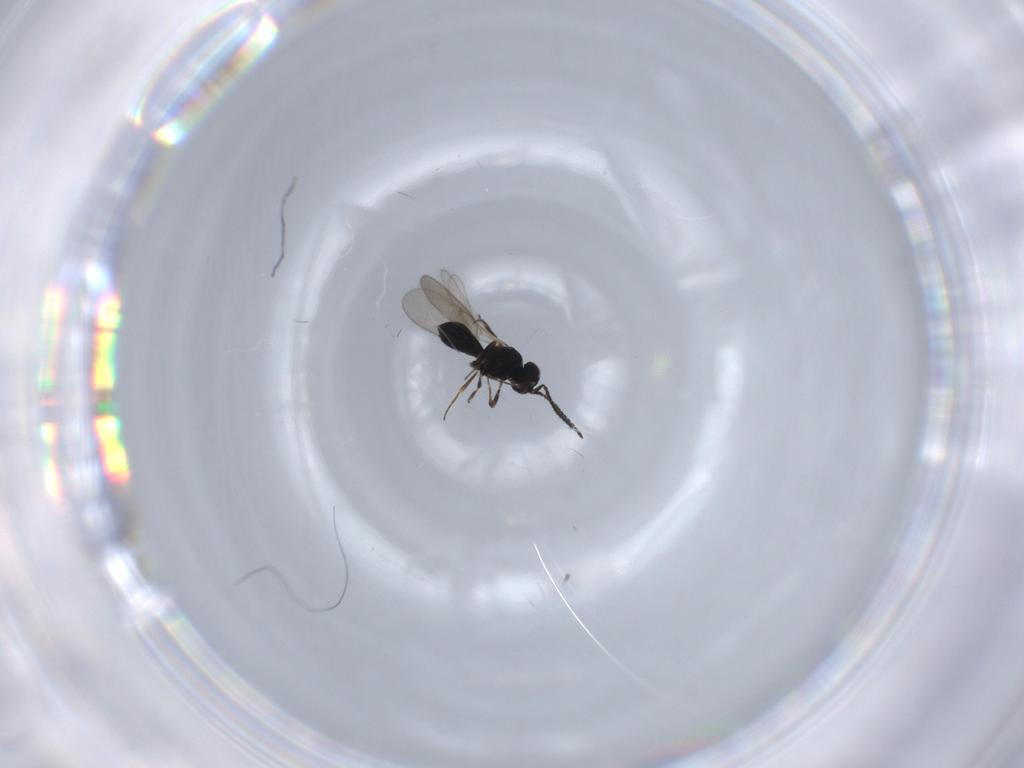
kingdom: Animalia
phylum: Arthropoda
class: Insecta
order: Hymenoptera
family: Scelionidae
